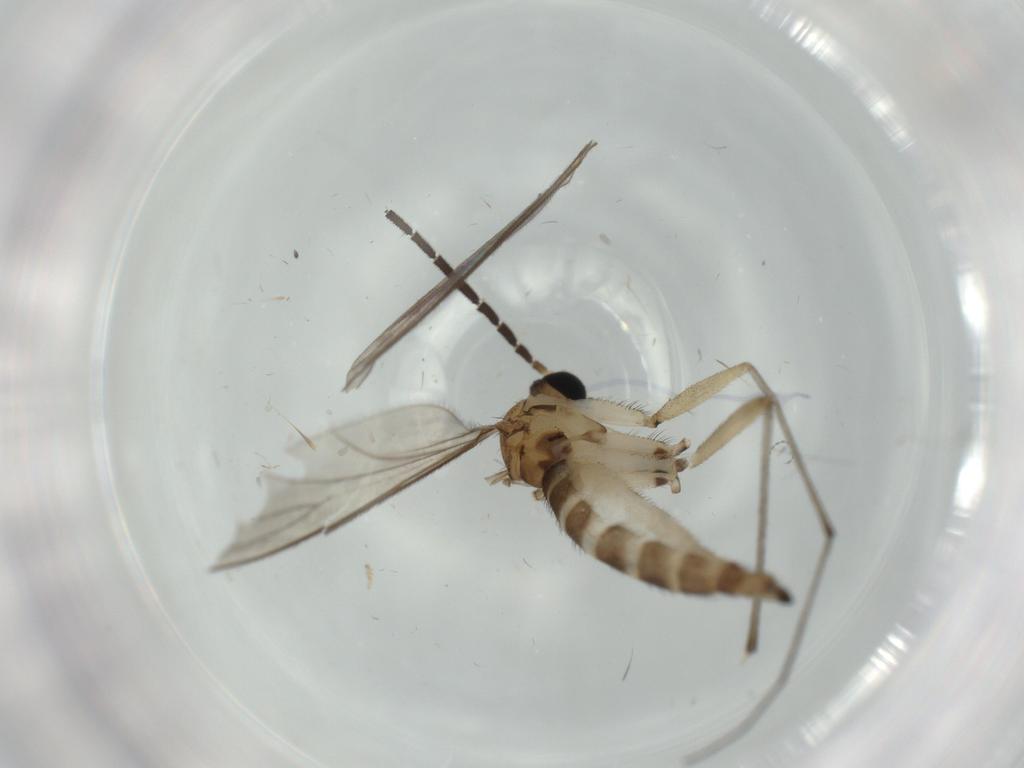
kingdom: Animalia
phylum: Arthropoda
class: Insecta
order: Diptera
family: Sciaridae
